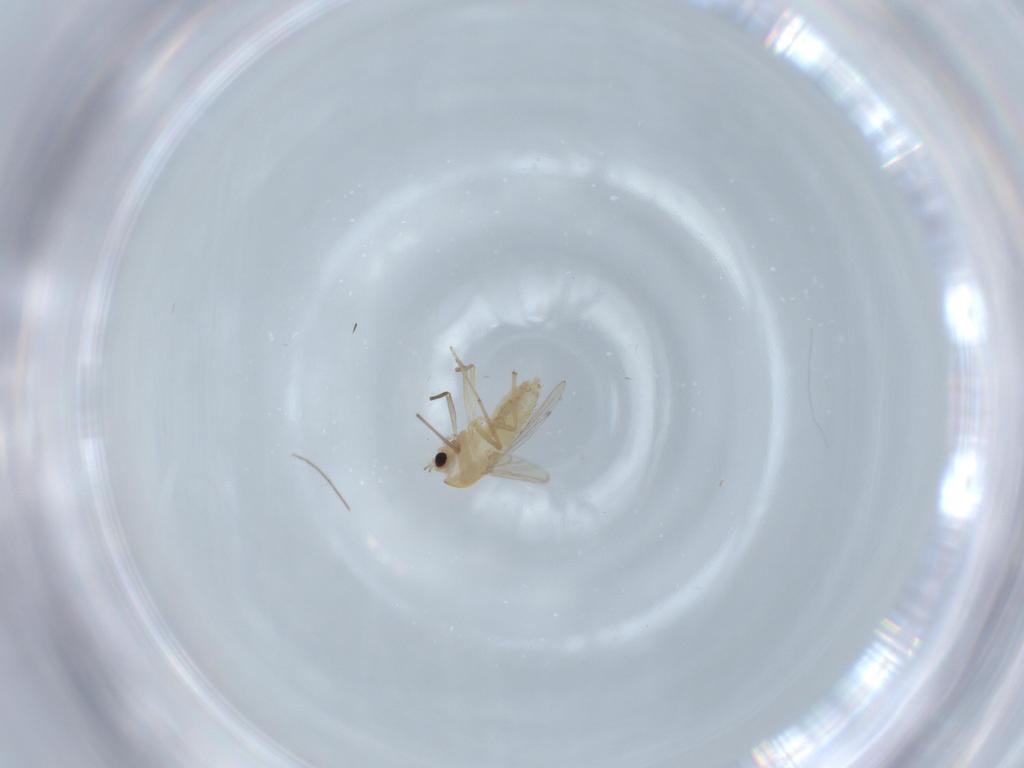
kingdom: Animalia
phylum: Arthropoda
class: Insecta
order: Diptera
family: Chironomidae
